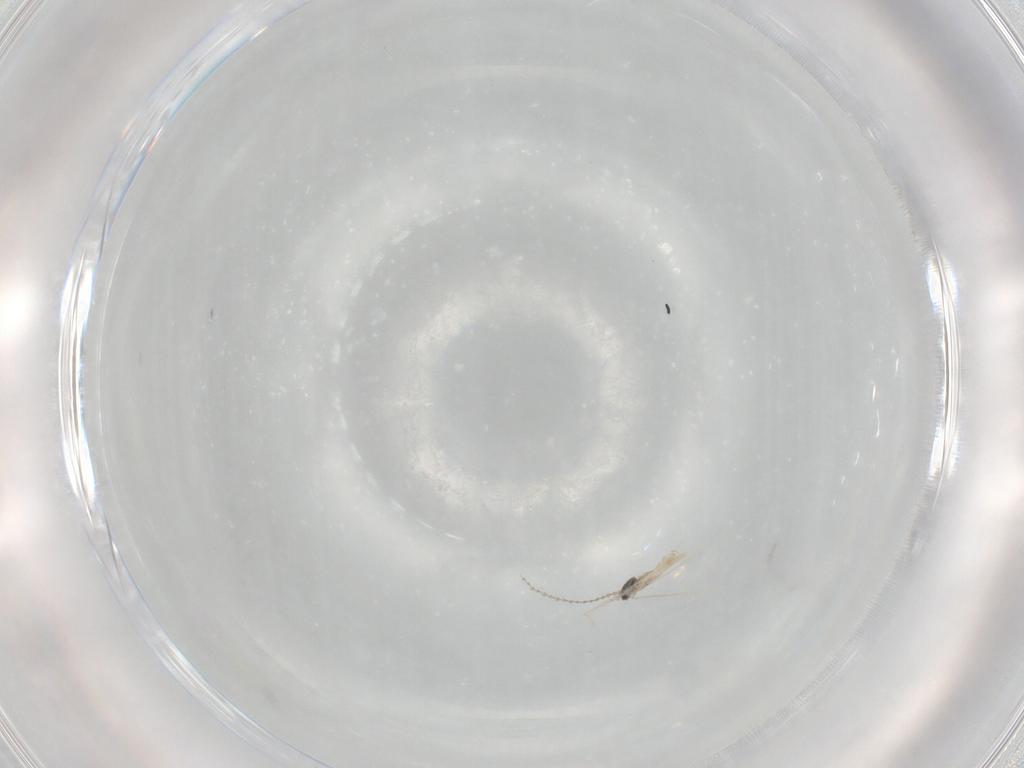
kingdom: Animalia
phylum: Arthropoda
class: Insecta
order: Diptera
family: Cecidomyiidae
